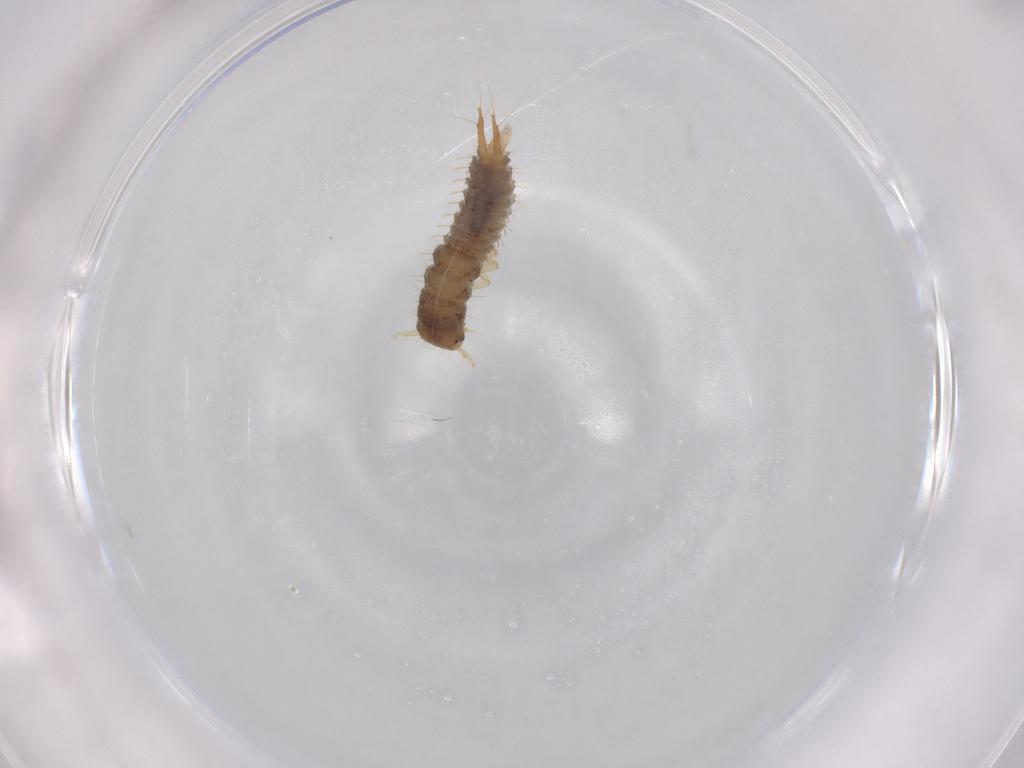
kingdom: Animalia
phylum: Arthropoda
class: Insecta
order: Coleoptera
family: Staphylinidae
